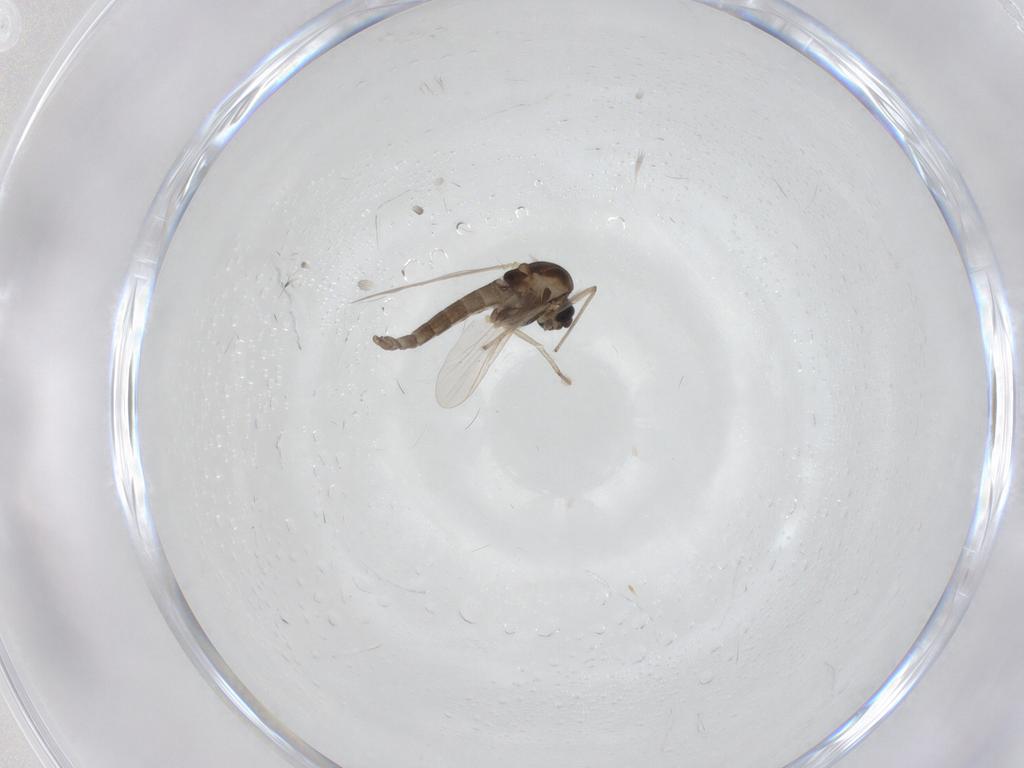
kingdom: Animalia
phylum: Arthropoda
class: Insecta
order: Diptera
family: Chironomidae
